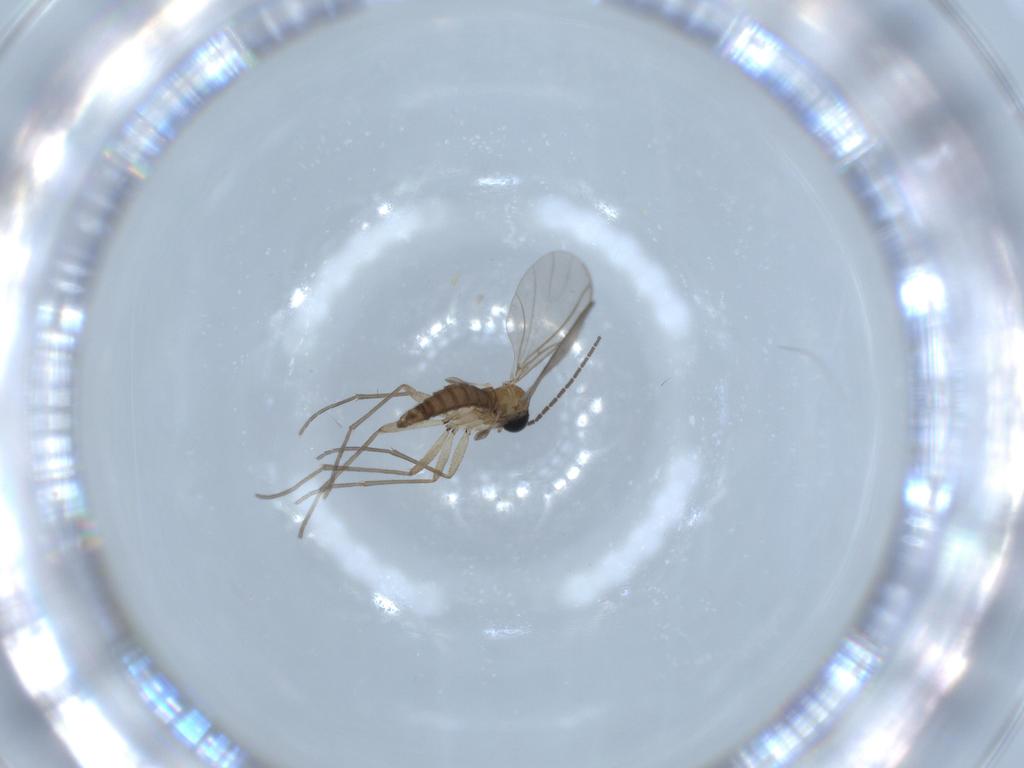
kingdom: Animalia
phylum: Arthropoda
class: Insecta
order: Diptera
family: Sciaridae
